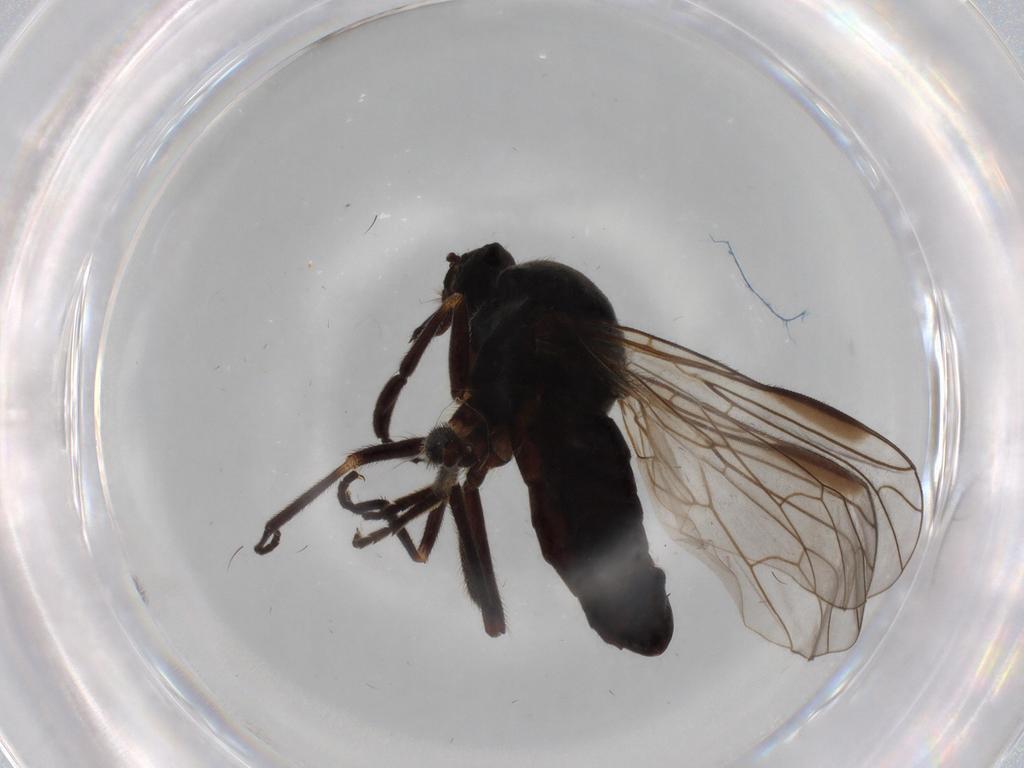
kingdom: Animalia
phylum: Arthropoda
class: Insecta
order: Diptera
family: Empididae
